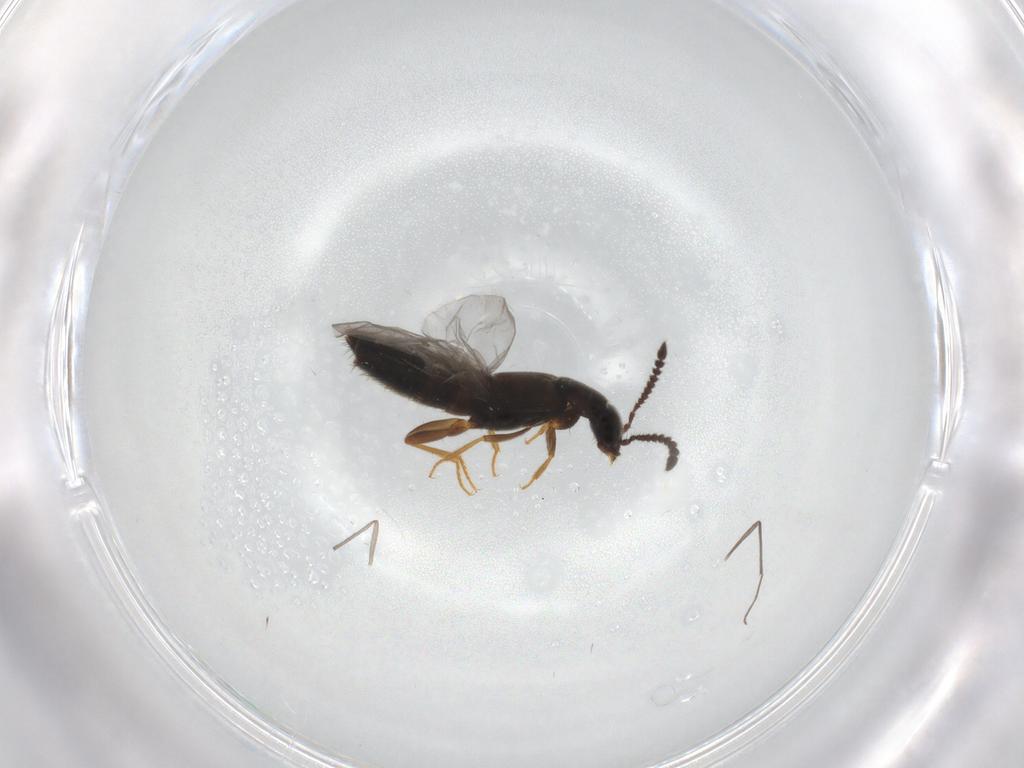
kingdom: Animalia
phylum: Arthropoda
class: Insecta
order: Coleoptera
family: Staphylinidae
